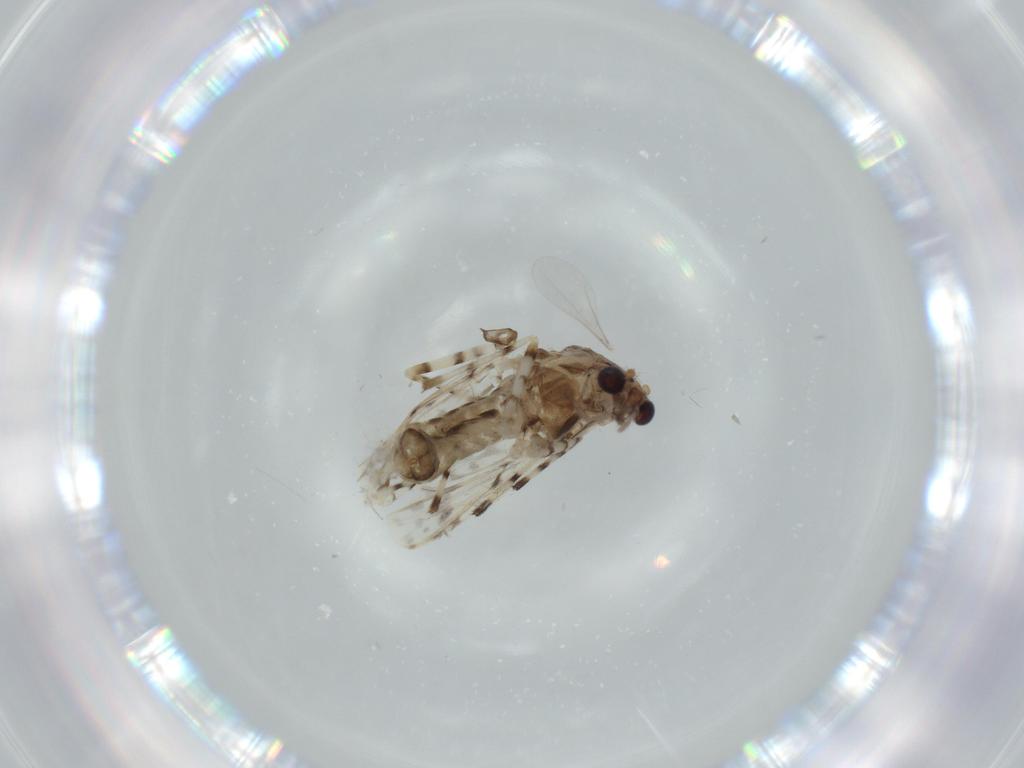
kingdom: Animalia
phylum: Arthropoda
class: Insecta
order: Diptera
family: Chironomidae
